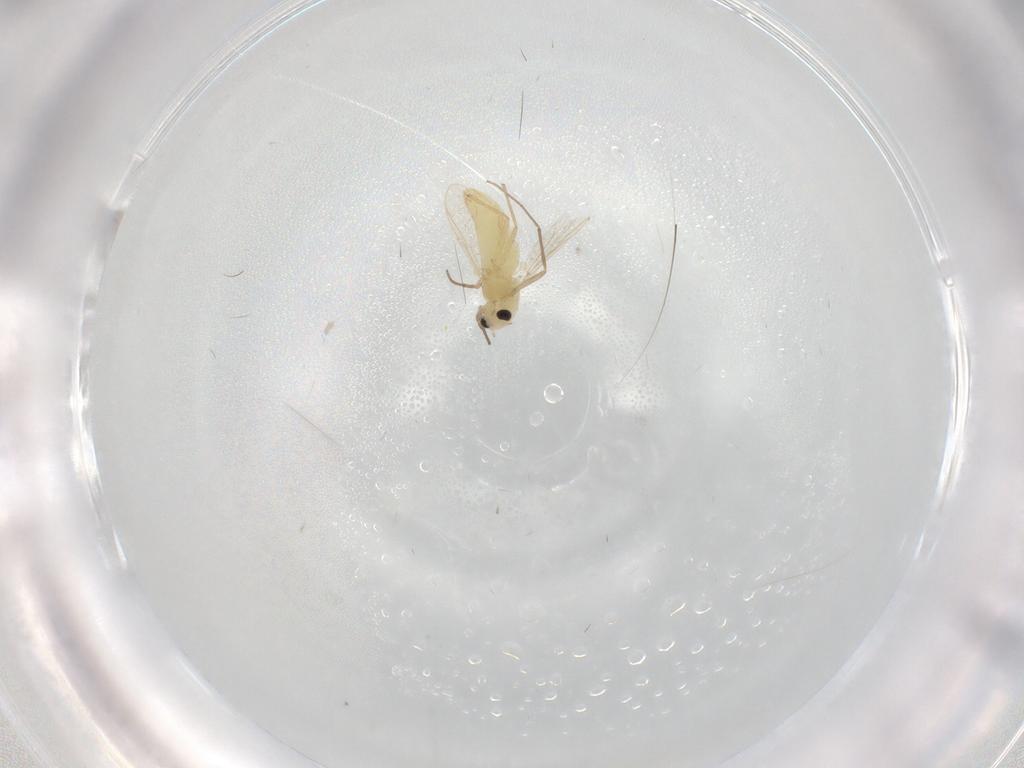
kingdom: Animalia
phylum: Arthropoda
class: Insecta
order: Diptera
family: Chironomidae
